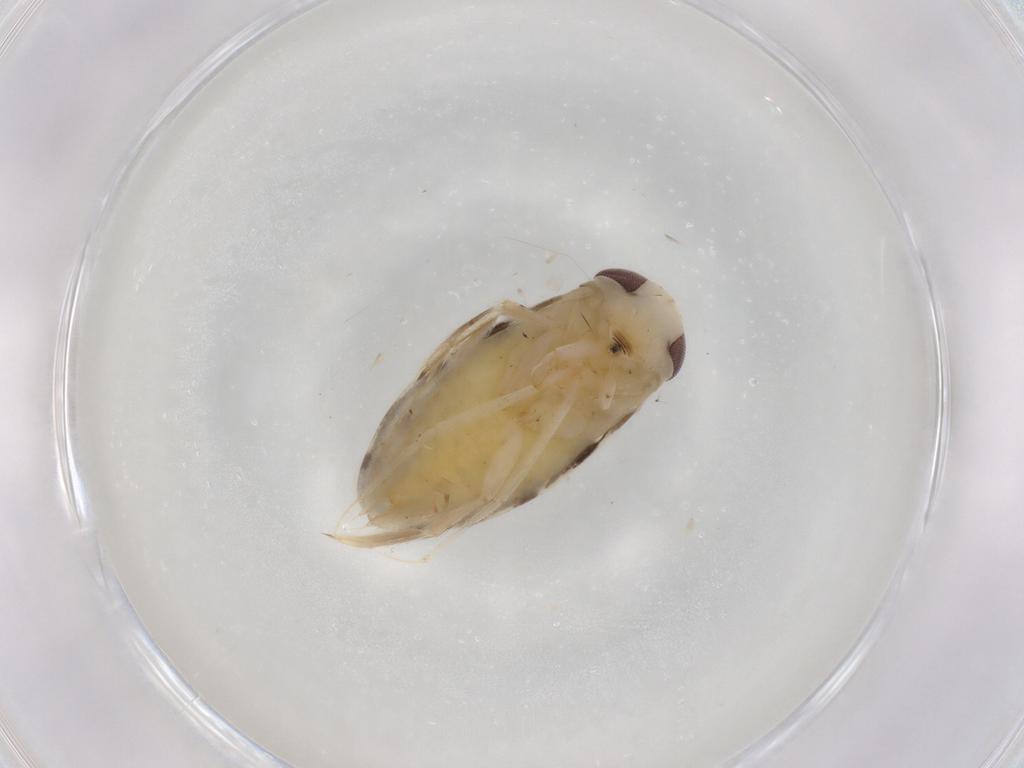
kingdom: Animalia
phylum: Arthropoda
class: Insecta
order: Hemiptera
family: Corixidae
